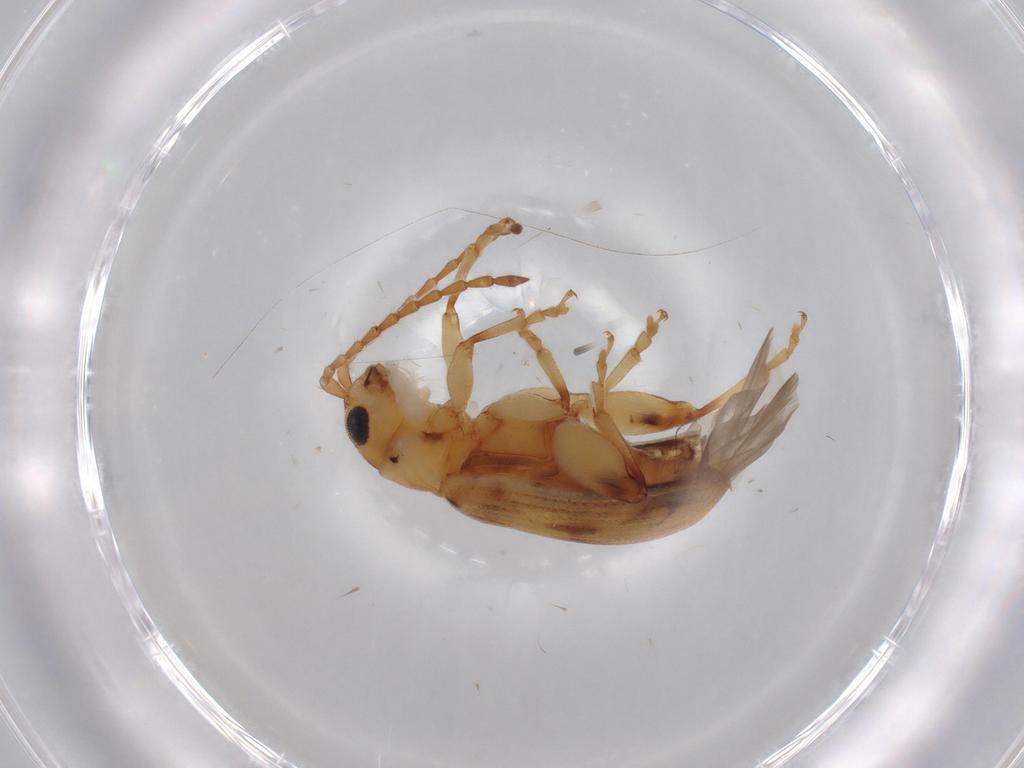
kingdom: Animalia
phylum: Arthropoda
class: Insecta
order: Coleoptera
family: Chrysomelidae
